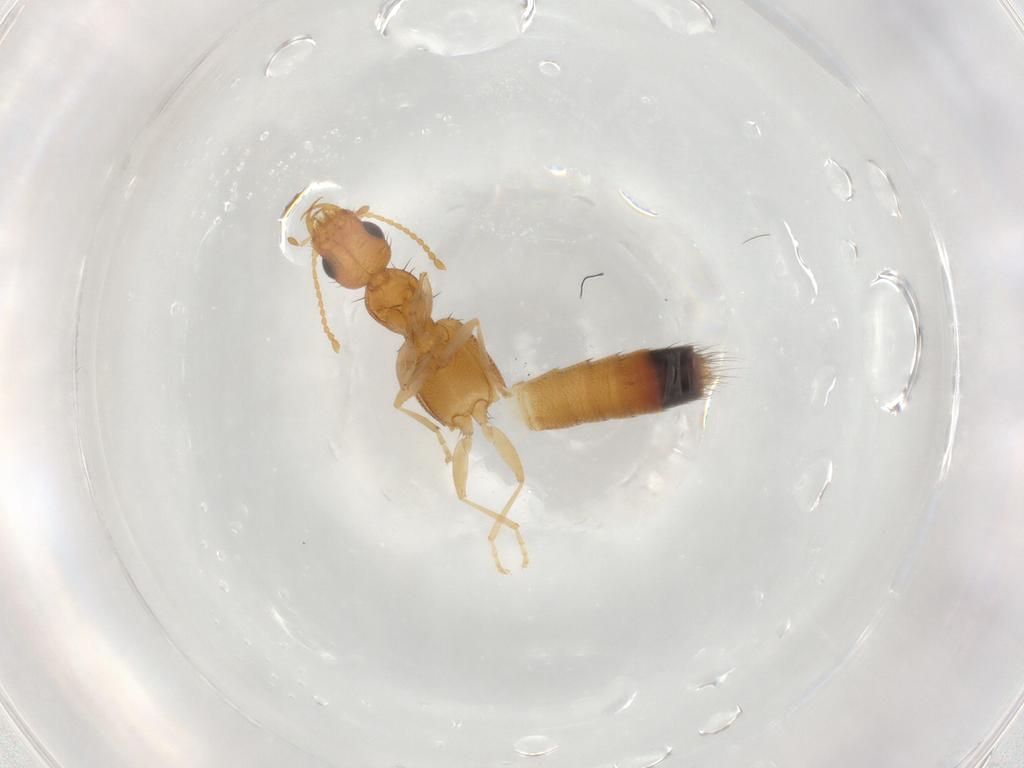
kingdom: Animalia
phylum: Arthropoda
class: Insecta
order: Coleoptera
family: Staphylinidae
